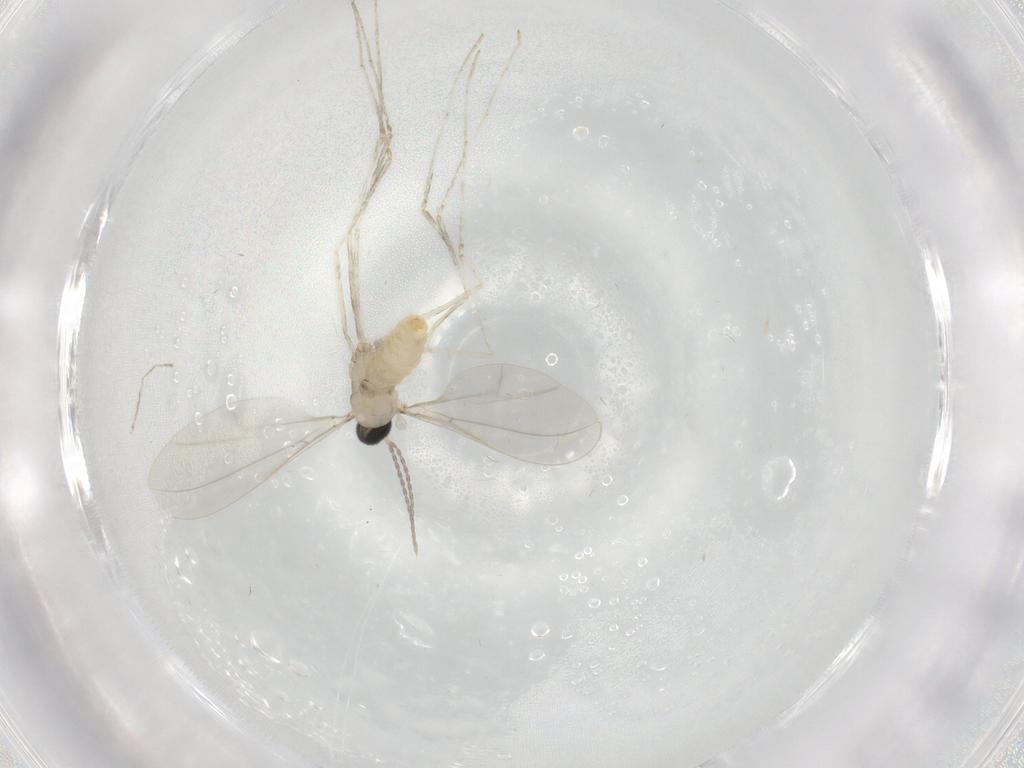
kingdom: Animalia
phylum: Arthropoda
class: Insecta
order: Diptera
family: Cecidomyiidae
